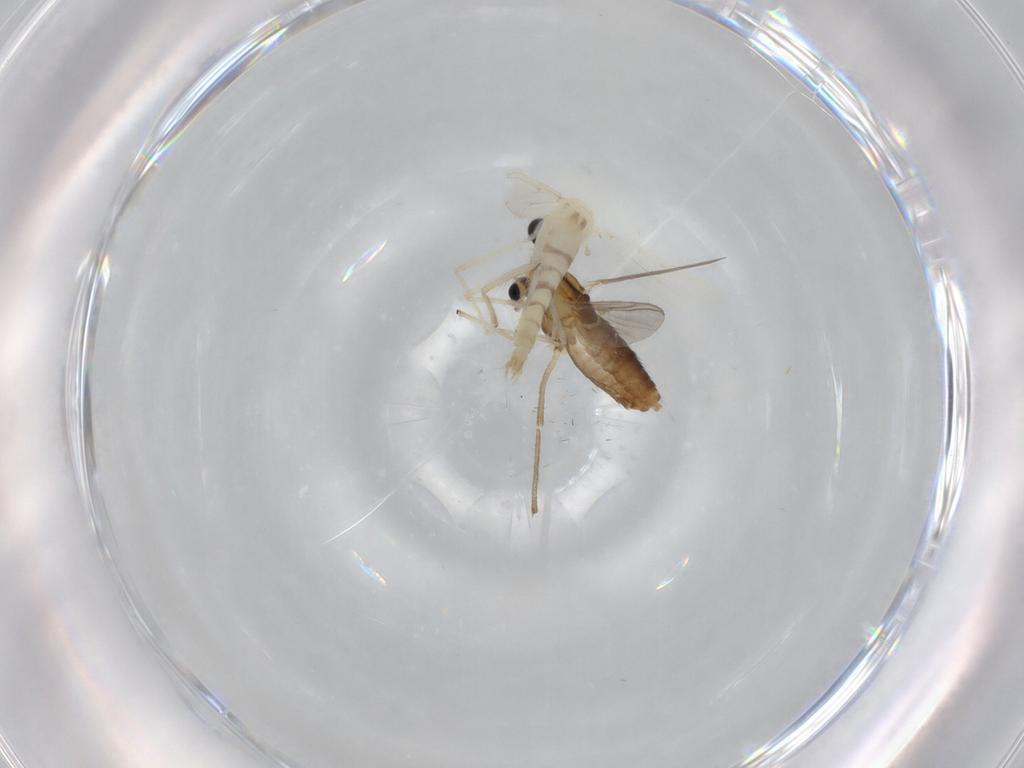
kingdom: Animalia
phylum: Arthropoda
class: Insecta
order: Diptera
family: Chironomidae
